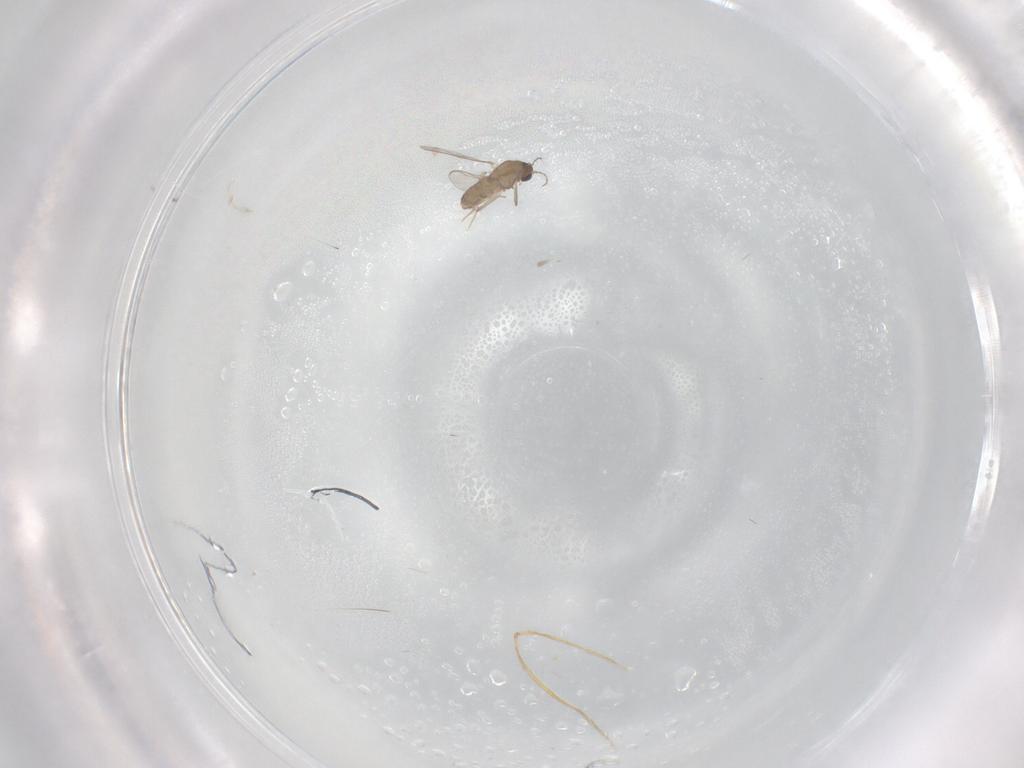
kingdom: Animalia
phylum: Arthropoda
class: Insecta
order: Diptera
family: Chironomidae
